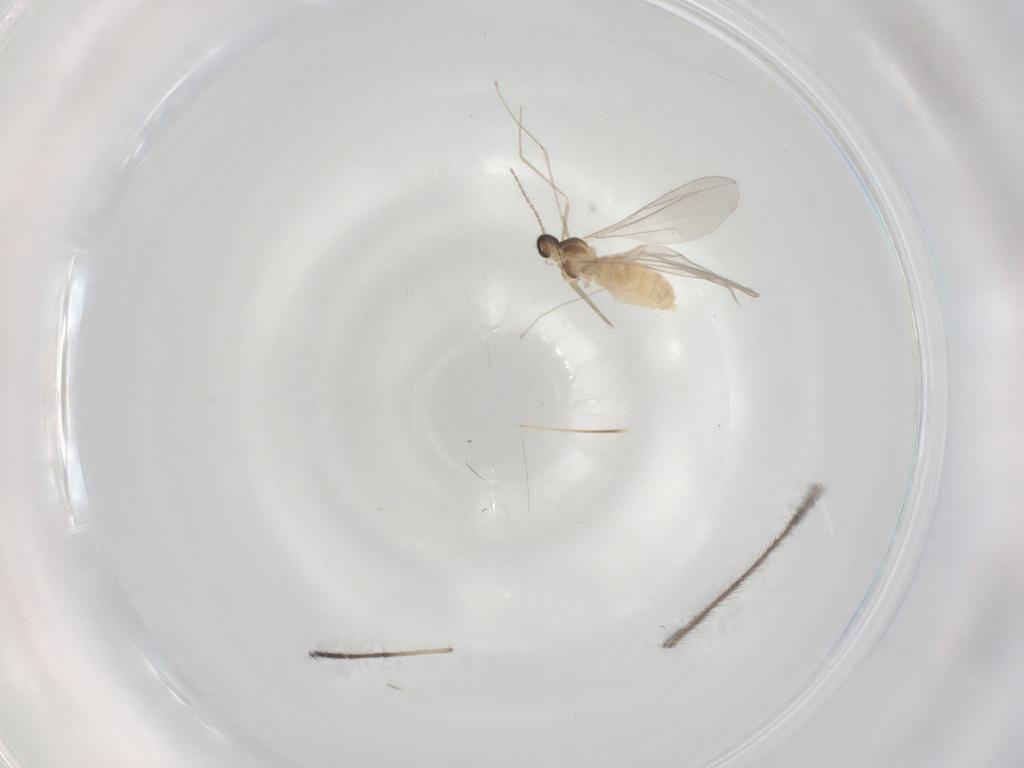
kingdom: Animalia
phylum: Arthropoda
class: Insecta
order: Diptera
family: Cecidomyiidae
